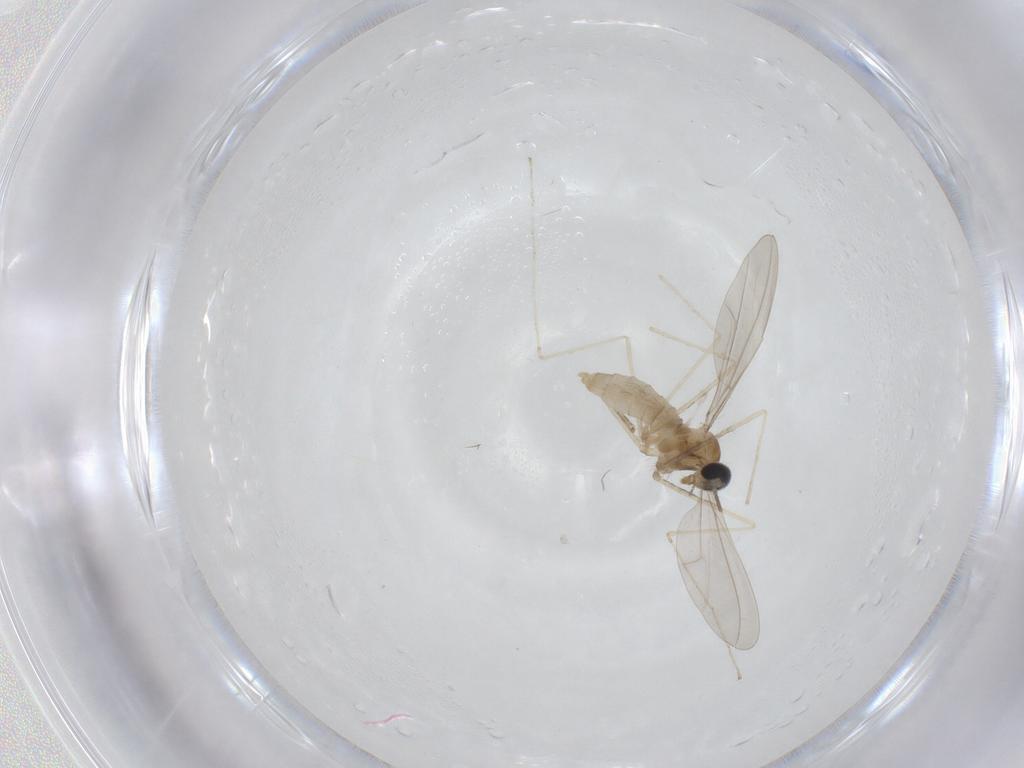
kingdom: Animalia
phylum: Arthropoda
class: Insecta
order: Diptera
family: Cecidomyiidae
